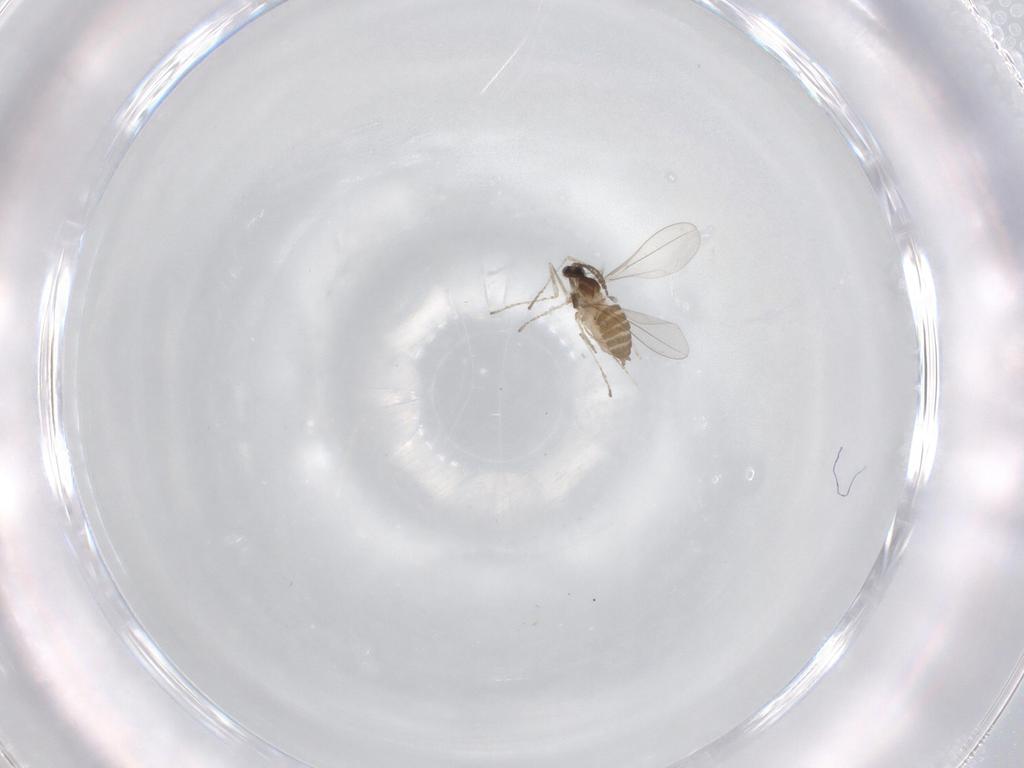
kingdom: Animalia
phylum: Arthropoda
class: Insecta
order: Diptera
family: Cecidomyiidae
